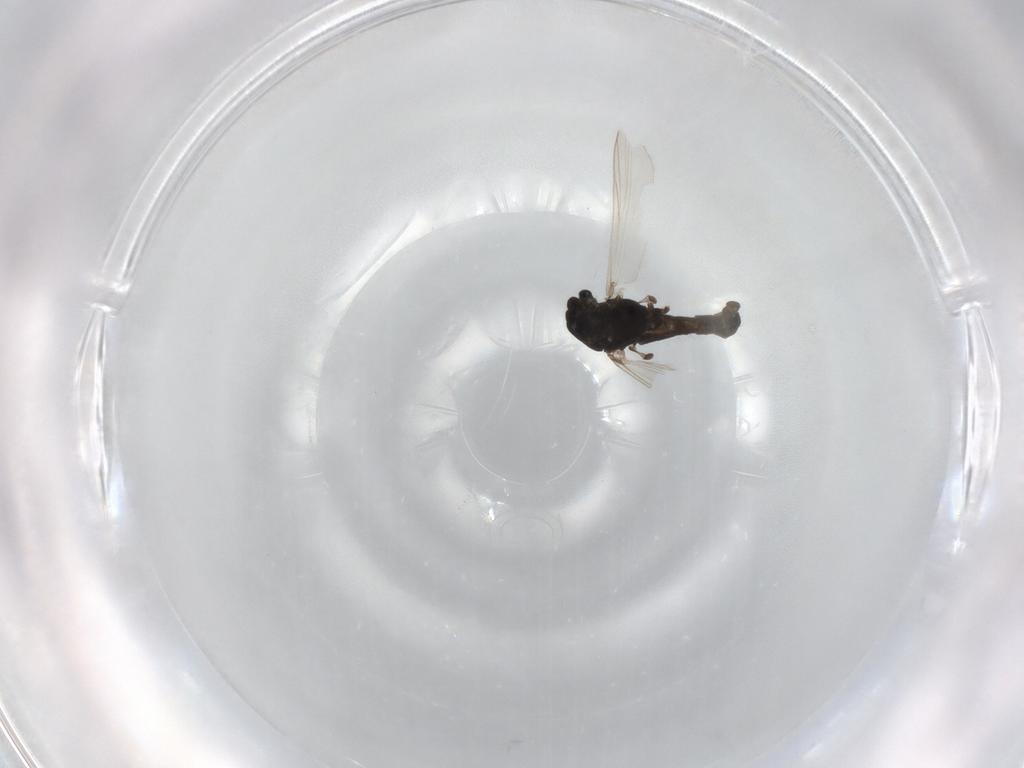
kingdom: Animalia
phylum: Arthropoda
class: Insecta
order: Diptera
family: Chironomidae
